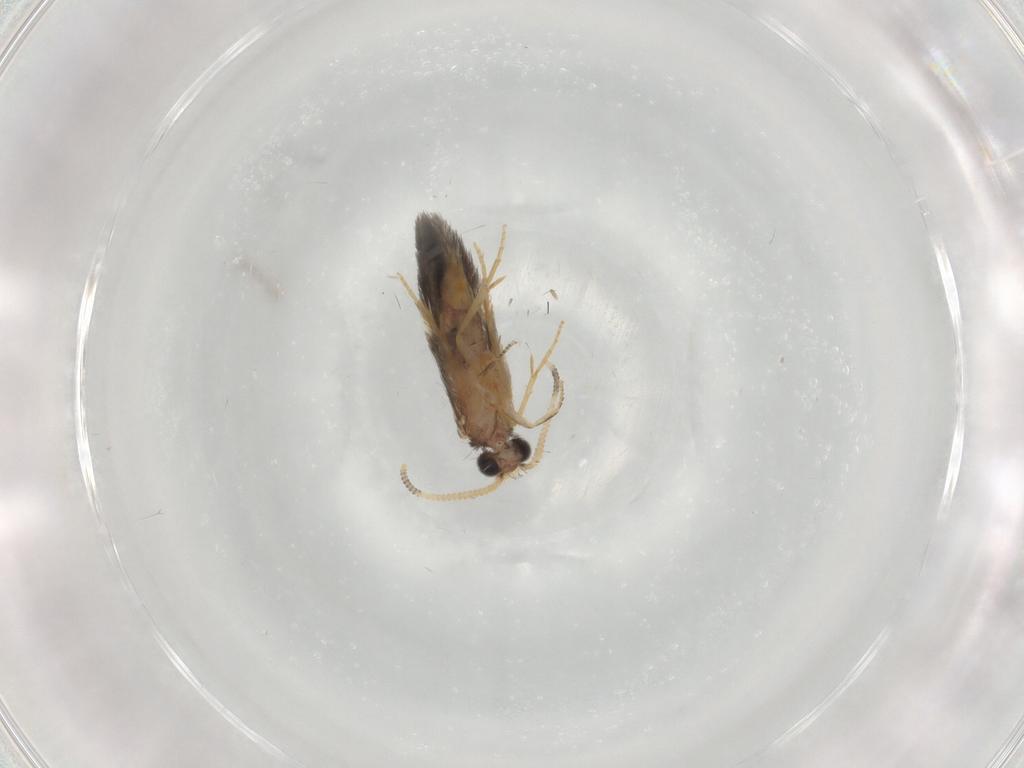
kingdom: Animalia
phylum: Arthropoda
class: Insecta
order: Trichoptera
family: Hydroptilidae
